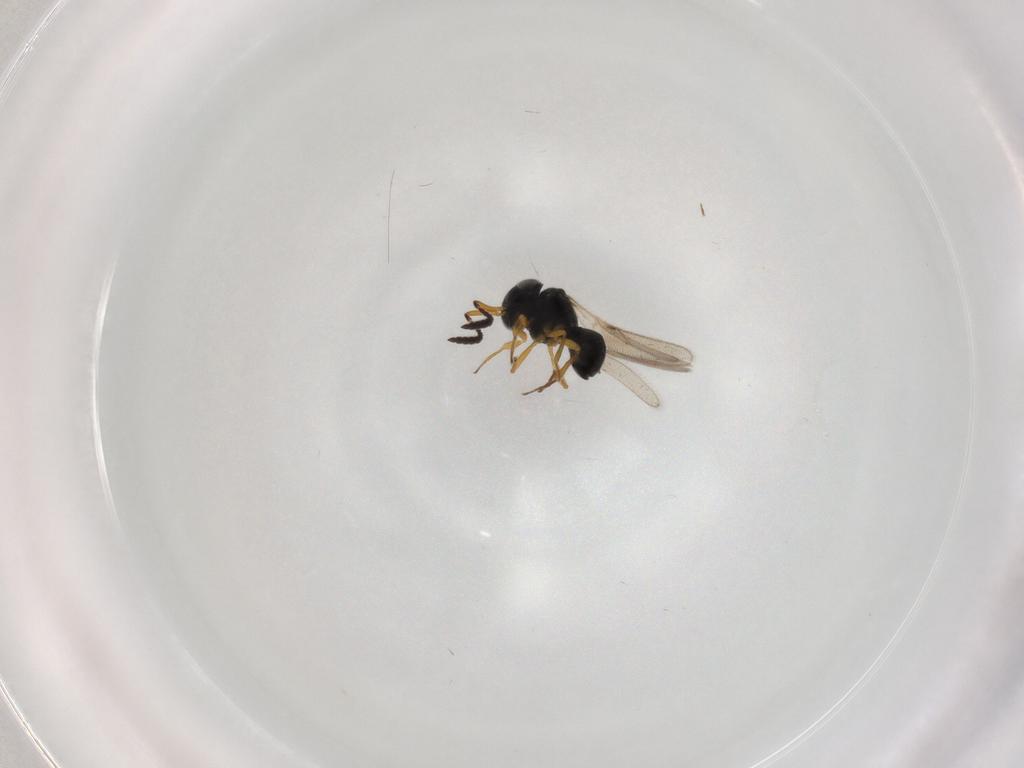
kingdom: Animalia
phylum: Arthropoda
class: Insecta
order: Hymenoptera
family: Scelionidae
